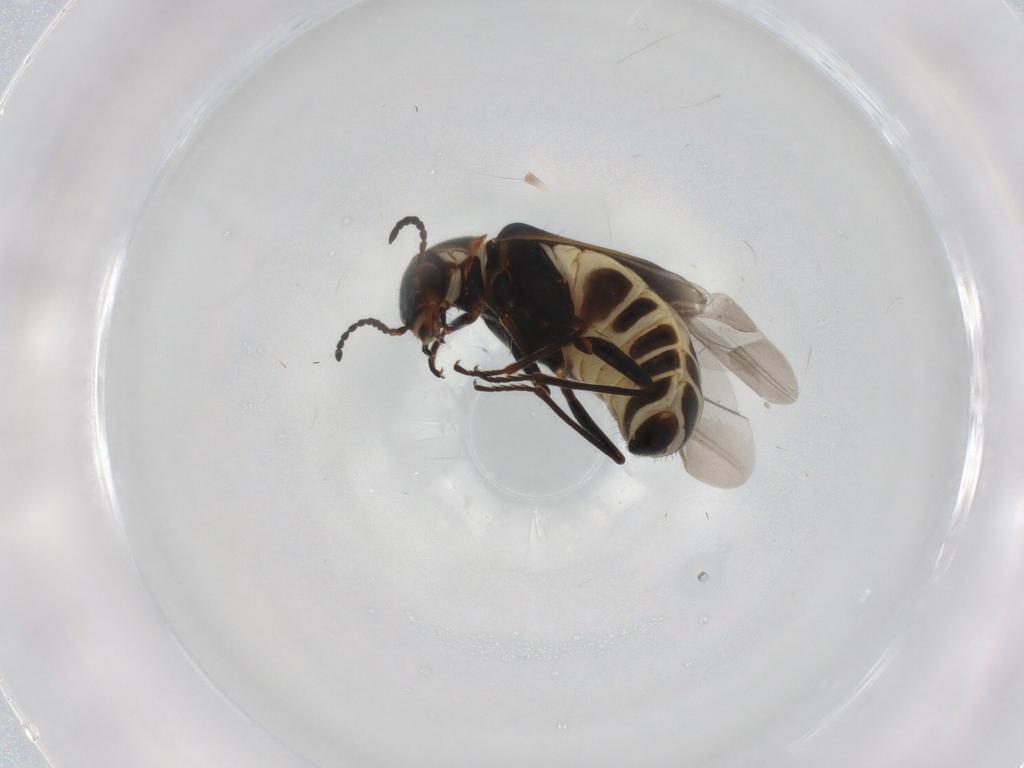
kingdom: Animalia
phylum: Arthropoda
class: Insecta
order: Coleoptera
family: Melyridae
